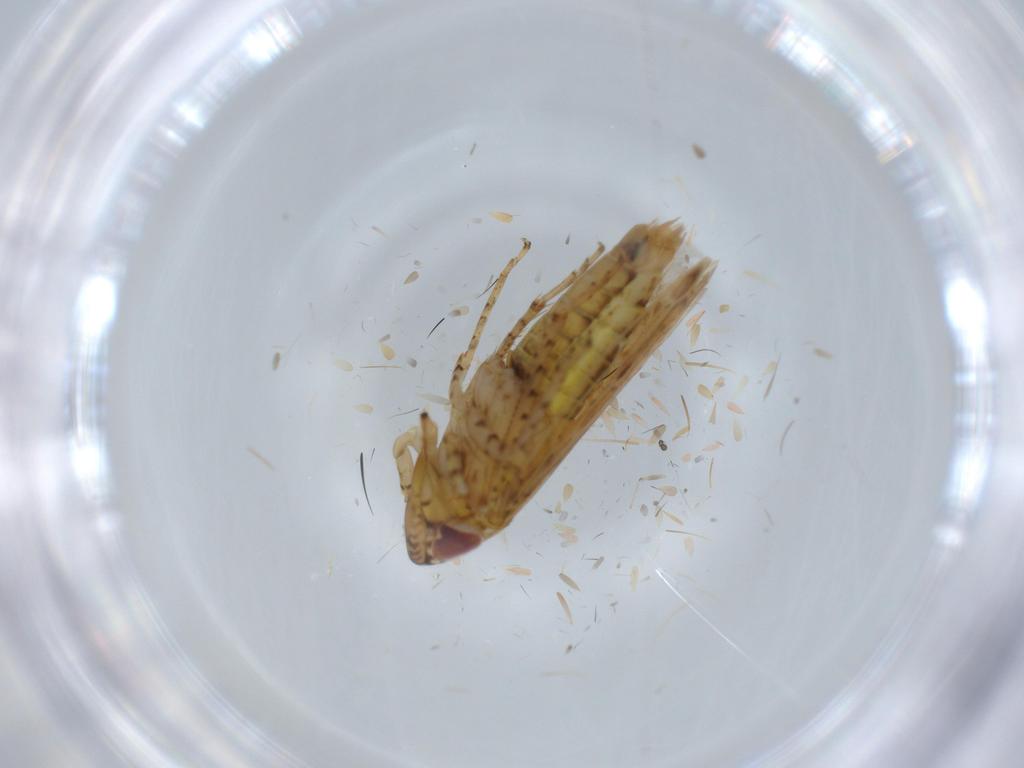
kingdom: Animalia
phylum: Arthropoda
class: Insecta
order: Hemiptera
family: Cicadellidae
